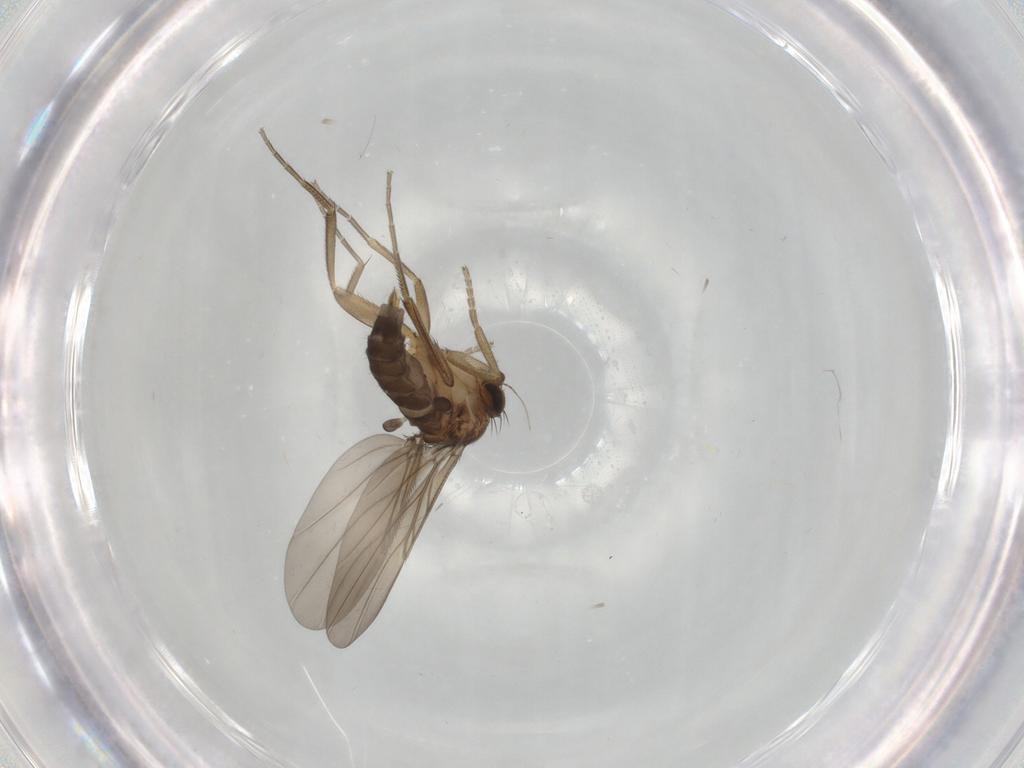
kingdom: Animalia
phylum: Arthropoda
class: Insecta
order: Diptera
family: Phoridae
